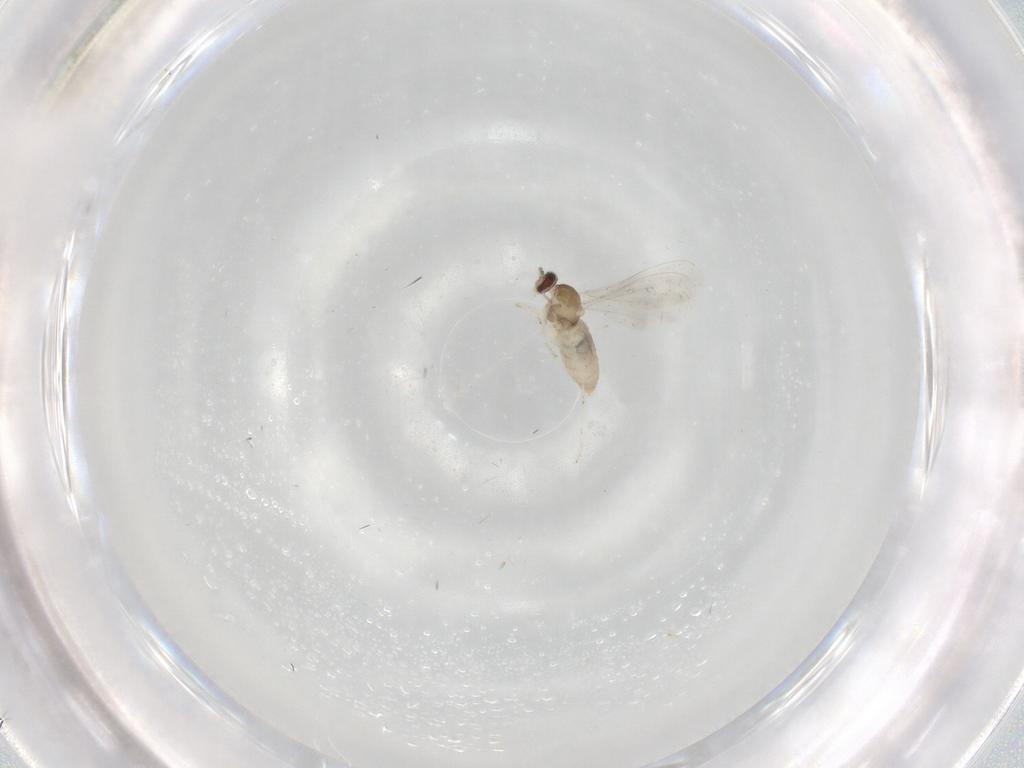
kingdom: Animalia
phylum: Arthropoda
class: Insecta
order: Diptera
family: Cecidomyiidae
